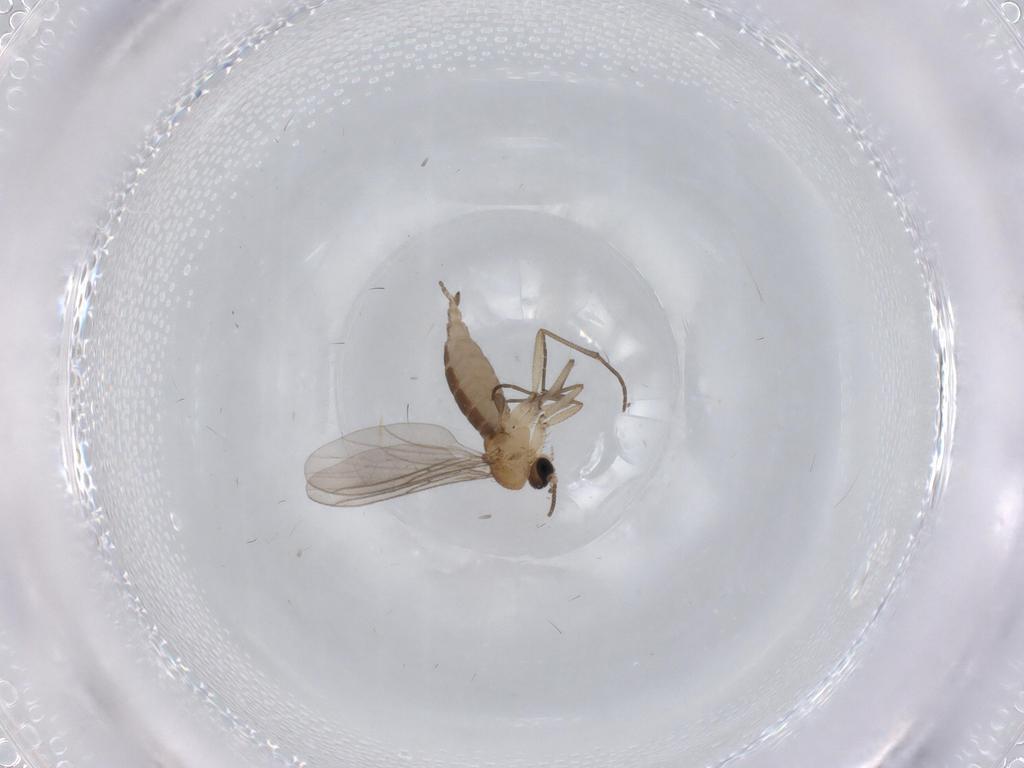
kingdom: Animalia
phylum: Arthropoda
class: Insecta
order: Diptera
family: Sciaridae
